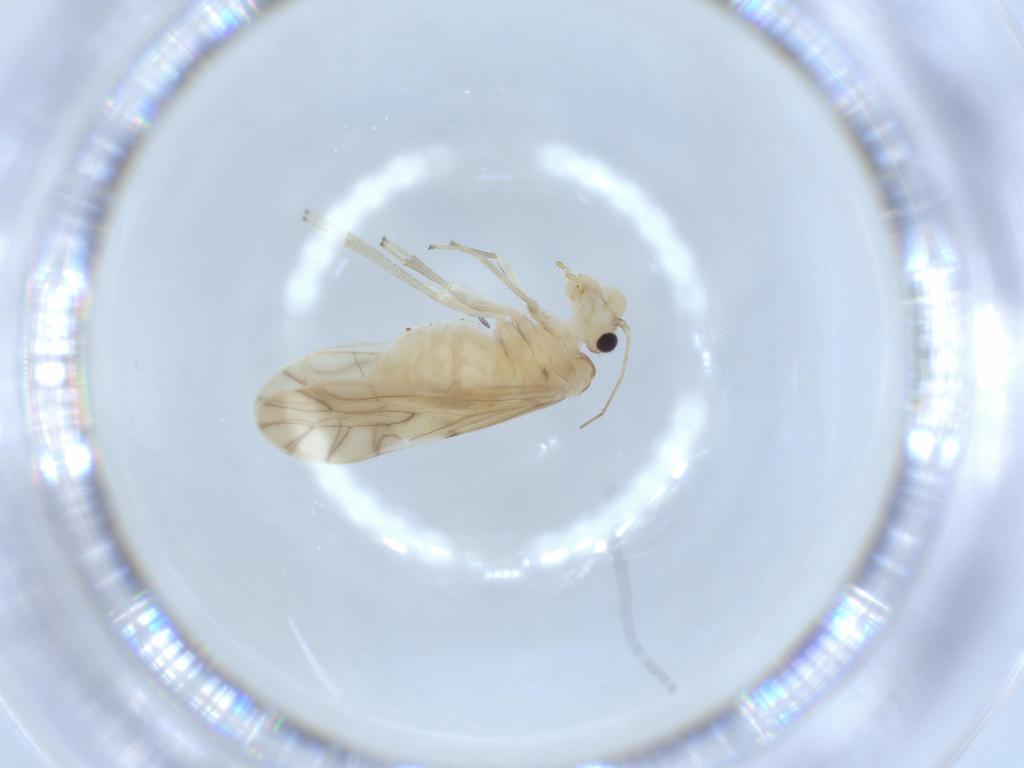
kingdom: Animalia
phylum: Arthropoda
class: Insecta
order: Psocodea
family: Caeciliusidae
